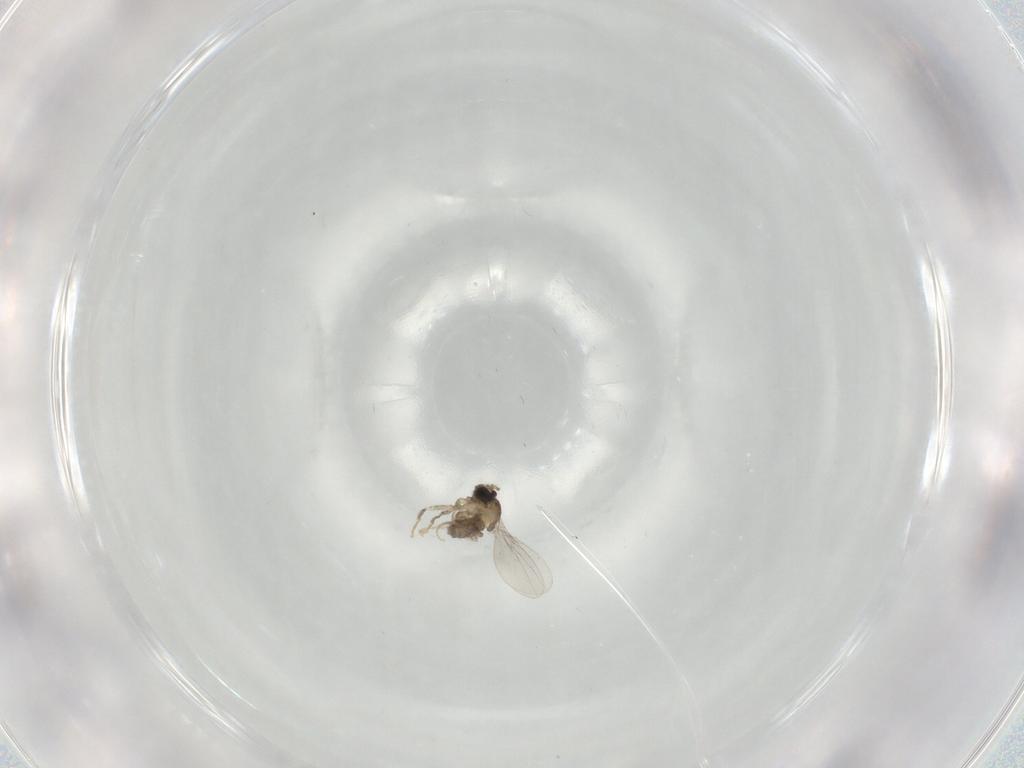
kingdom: Animalia
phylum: Arthropoda
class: Insecta
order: Diptera
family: Cecidomyiidae
